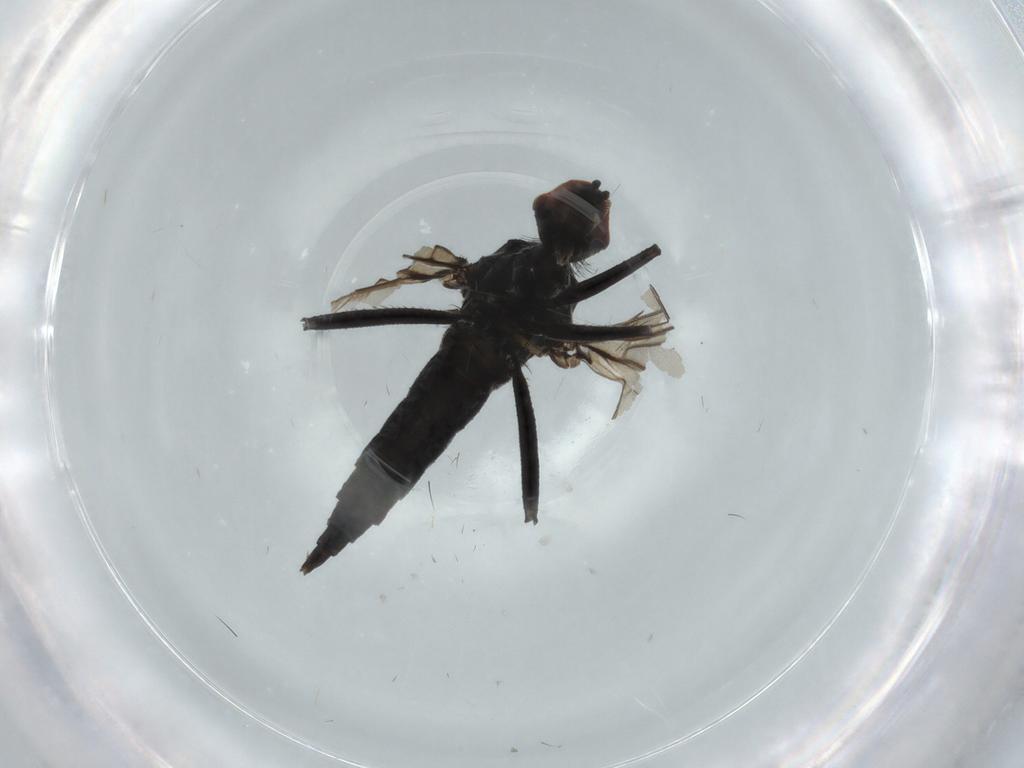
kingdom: Animalia
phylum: Arthropoda
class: Insecta
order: Diptera
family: Hybotidae
